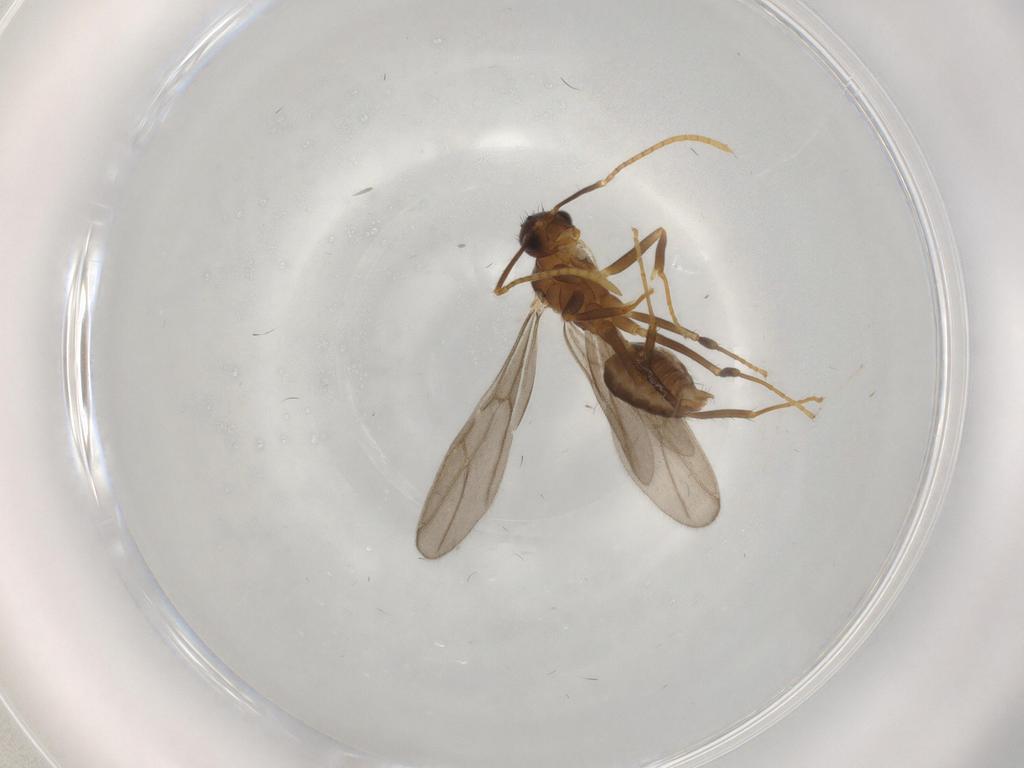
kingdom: Animalia
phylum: Arthropoda
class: Insecta
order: Hymenoptera
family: Formicidae
